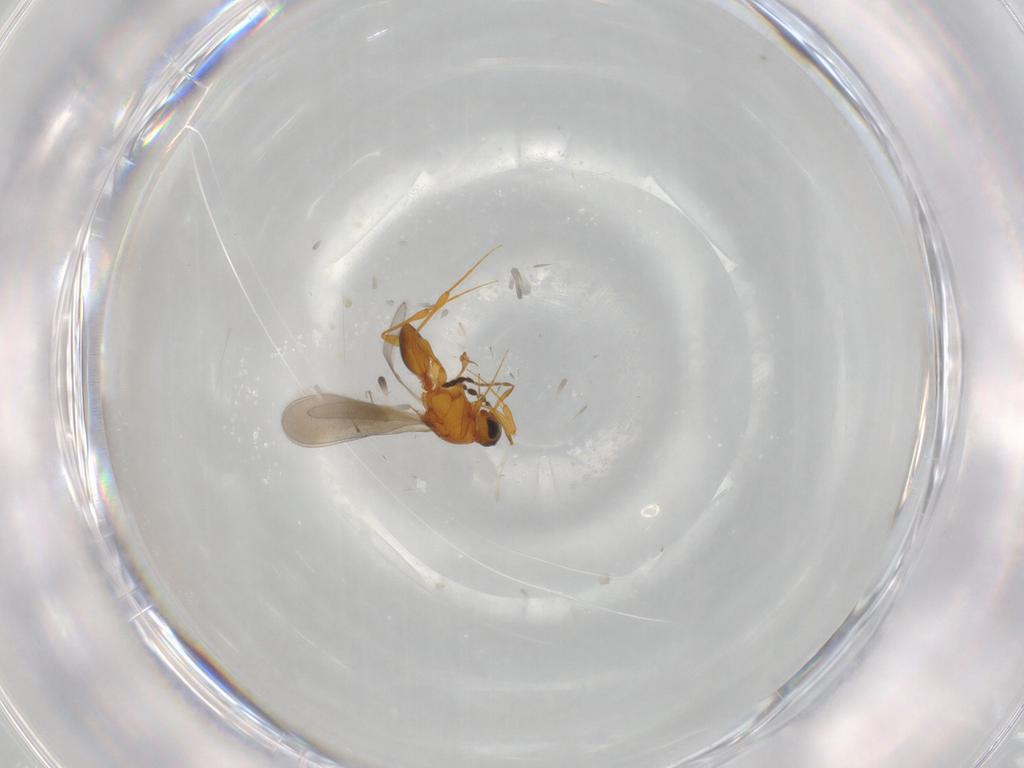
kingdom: Animalia
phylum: Arthropoda
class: Insecta
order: Hymenoptera
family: Platygastridae
